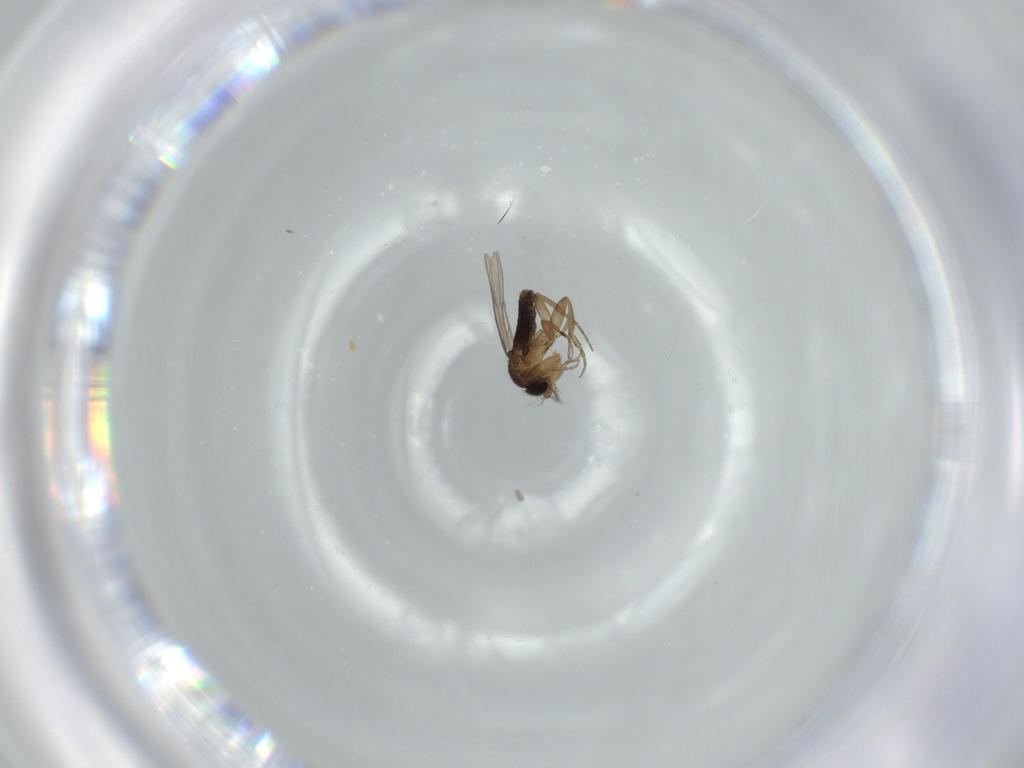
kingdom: Animalia
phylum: Arthropoda
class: Insecta
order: Diptera
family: Phoridae
